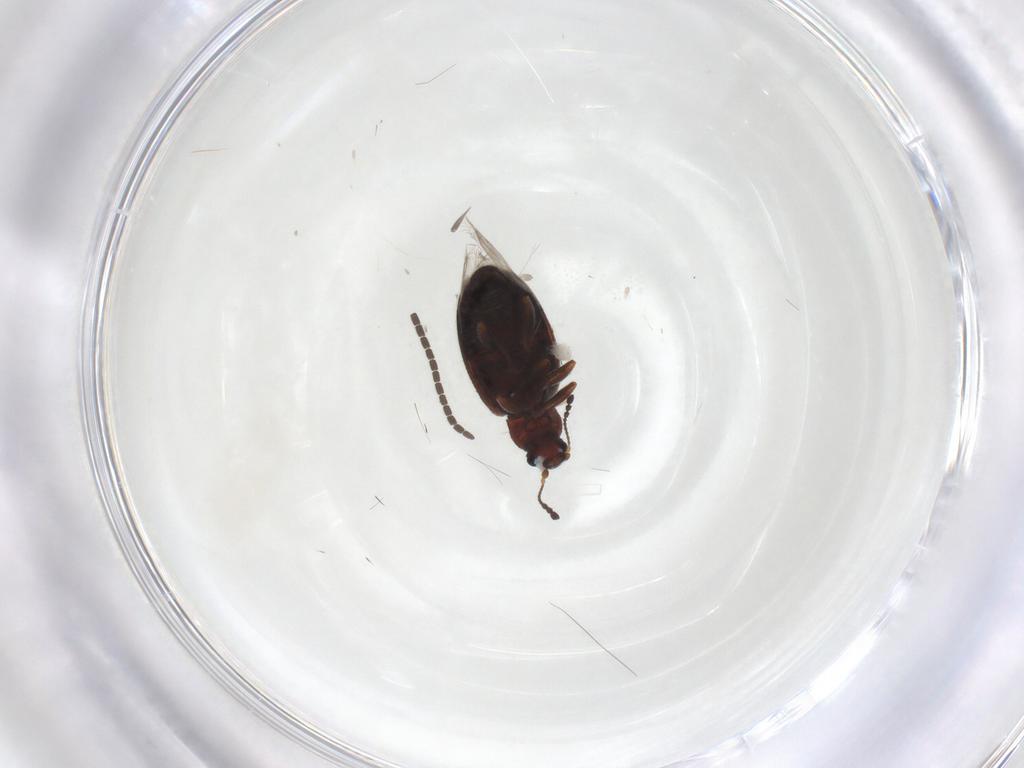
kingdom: Animalia
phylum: Arthropoda
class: Insecta
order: Coleoptera
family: Latridiidae
